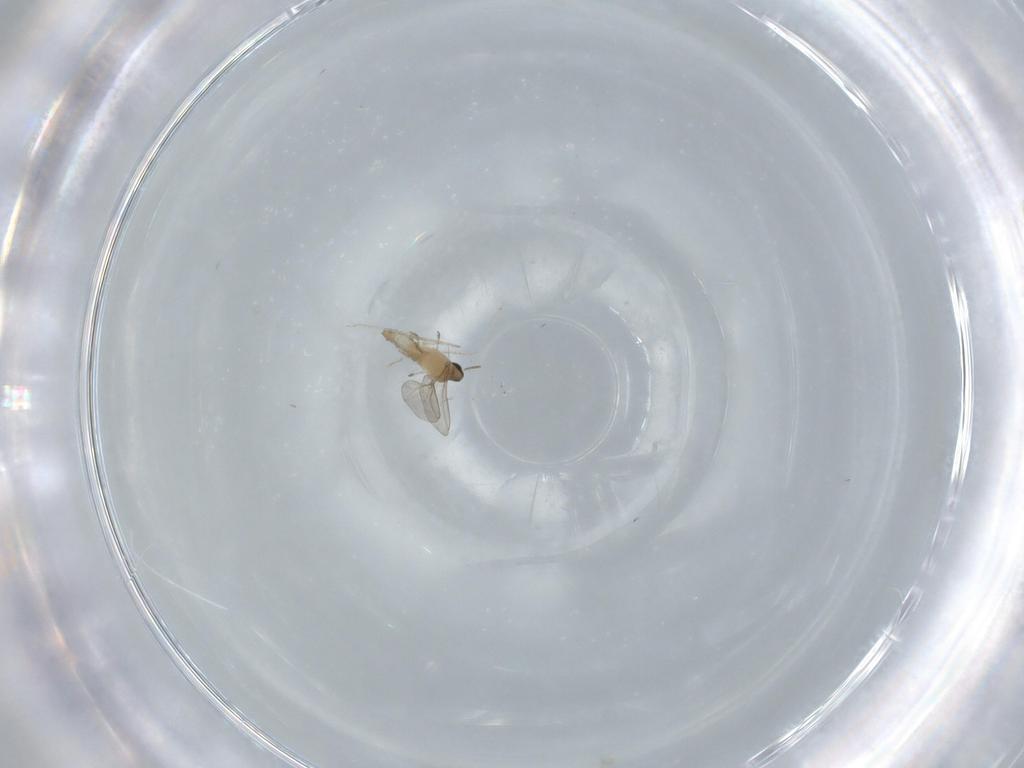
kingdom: Animalia
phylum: Arthropoda
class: Insecta
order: Diptera
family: Cecidomyiidae
